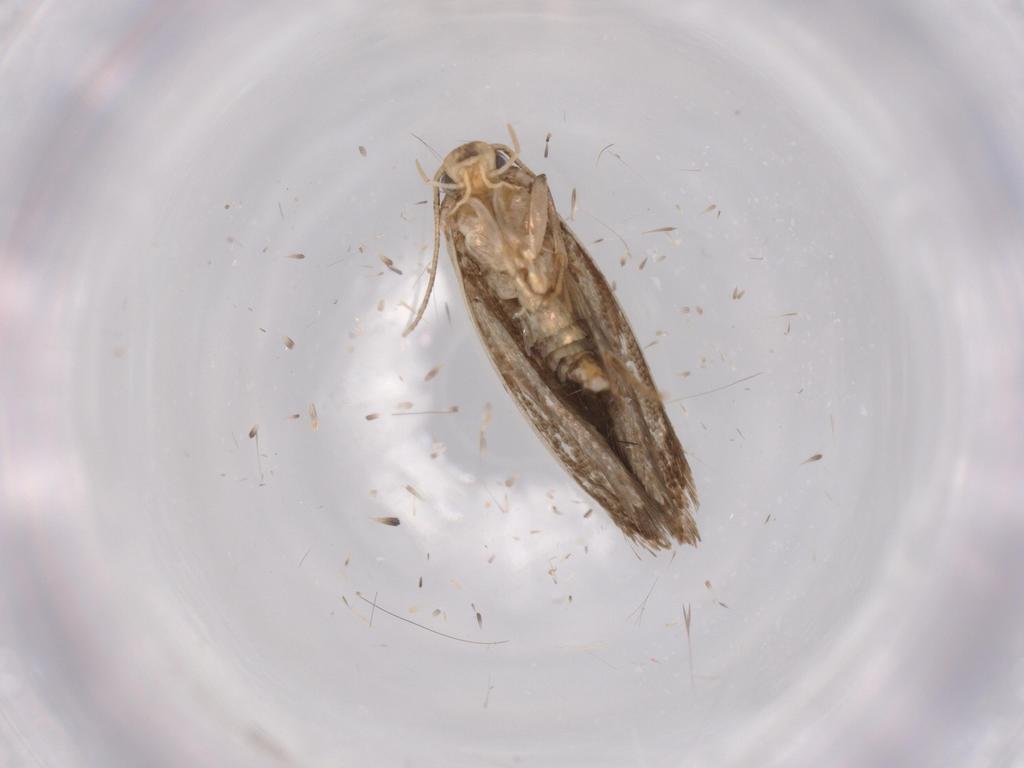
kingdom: Animalia
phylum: Arthropoda
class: Insecta
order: Lepidoptera
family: Tineidae
